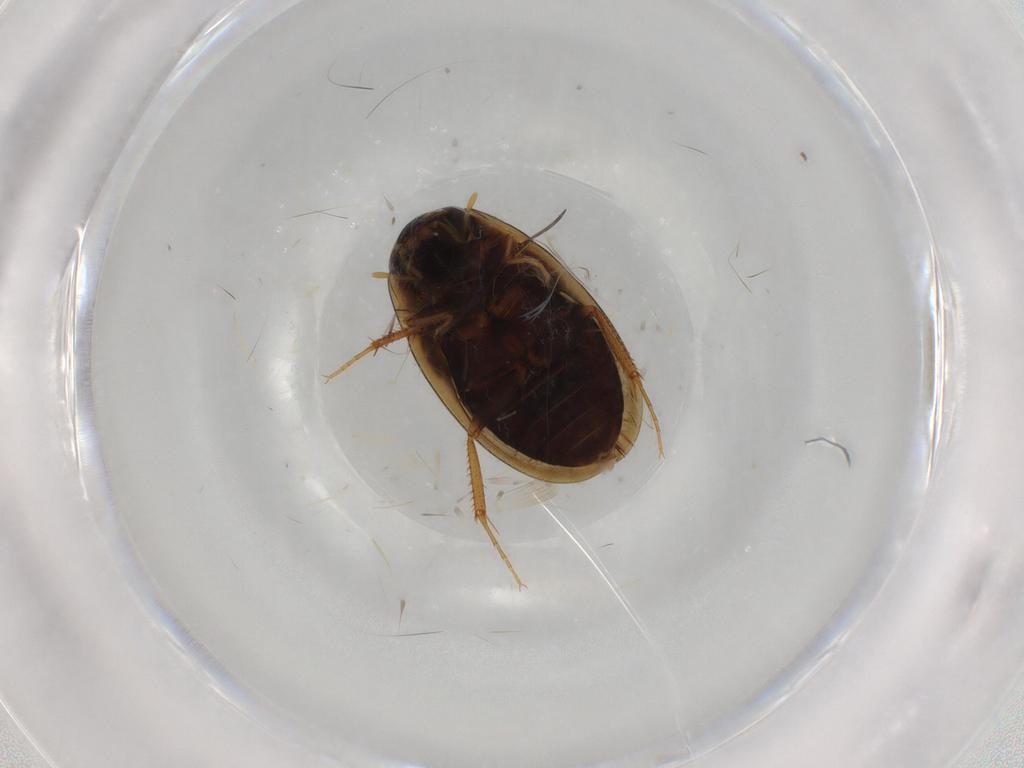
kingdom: Animalia
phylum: Arthropoda
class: Insecta
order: Coleoptera
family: Hydrophilidae
